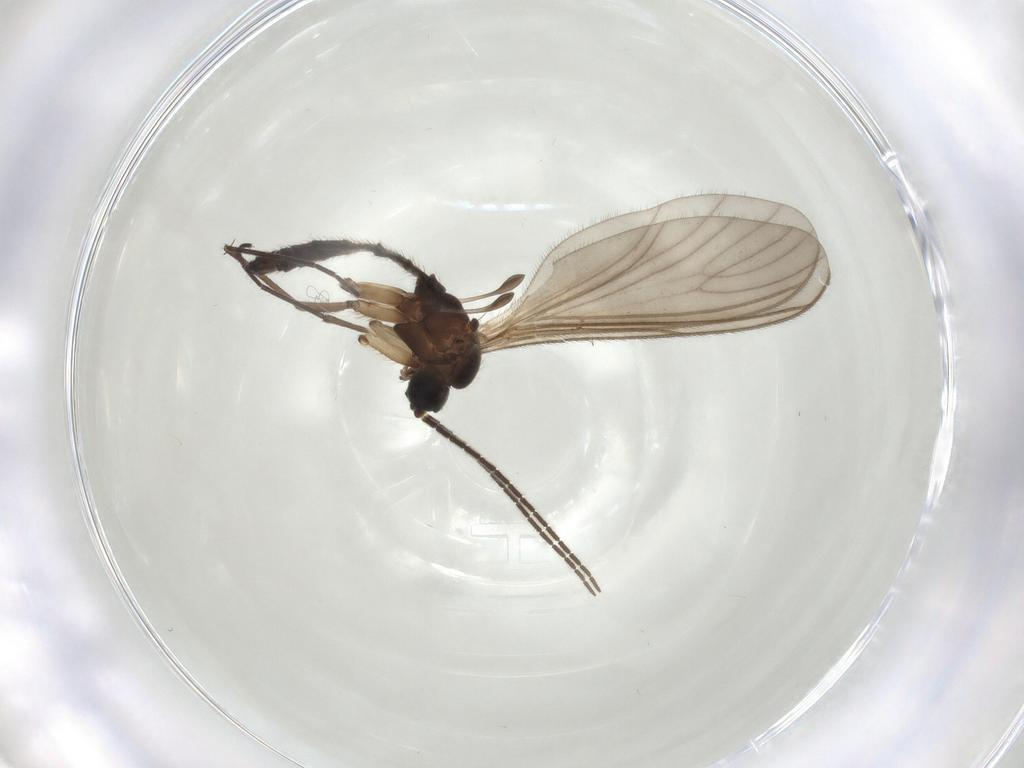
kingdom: Animalia
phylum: Arthropoda
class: Insecta
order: Diptera
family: Sciaridae
